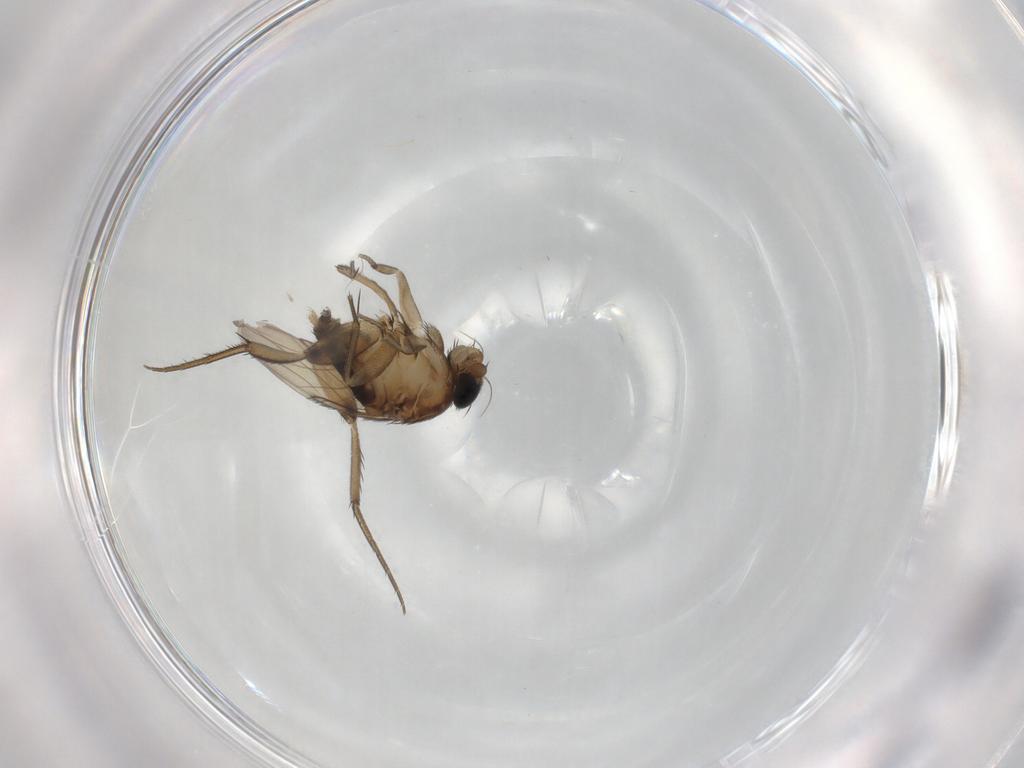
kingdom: Animalia
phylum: Arthropoda
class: Insecta
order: Diptera
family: Phoridae
